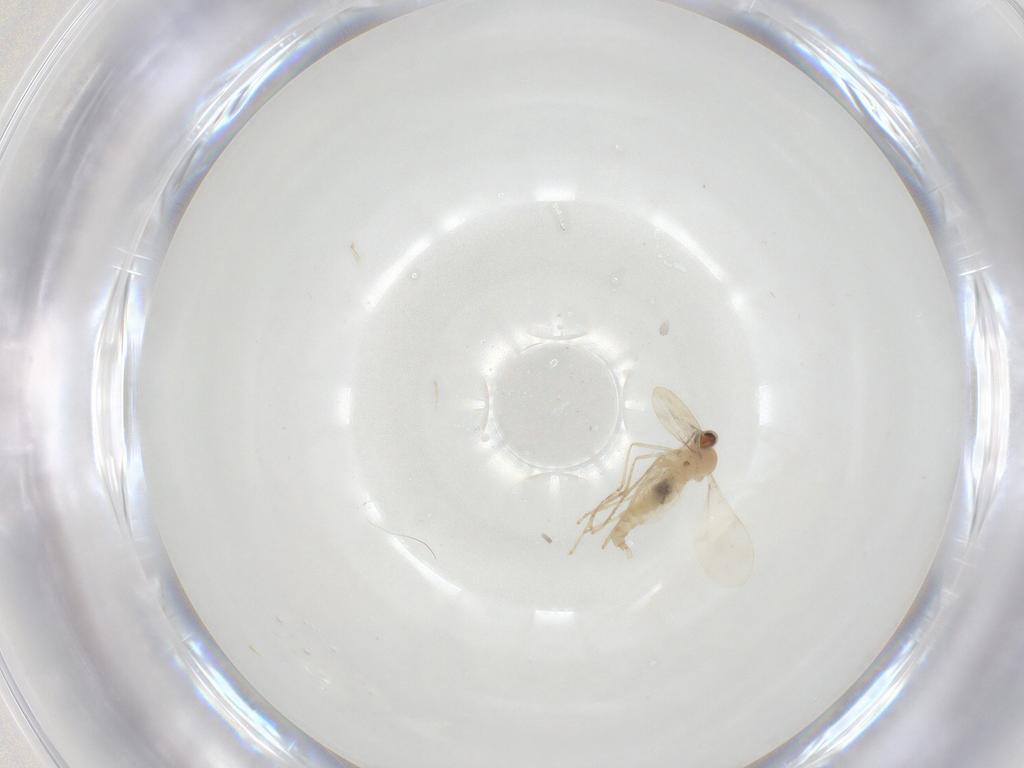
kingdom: Animalia
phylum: Arthropoda
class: Insecta
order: Diptera
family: Cecidomyiidae
